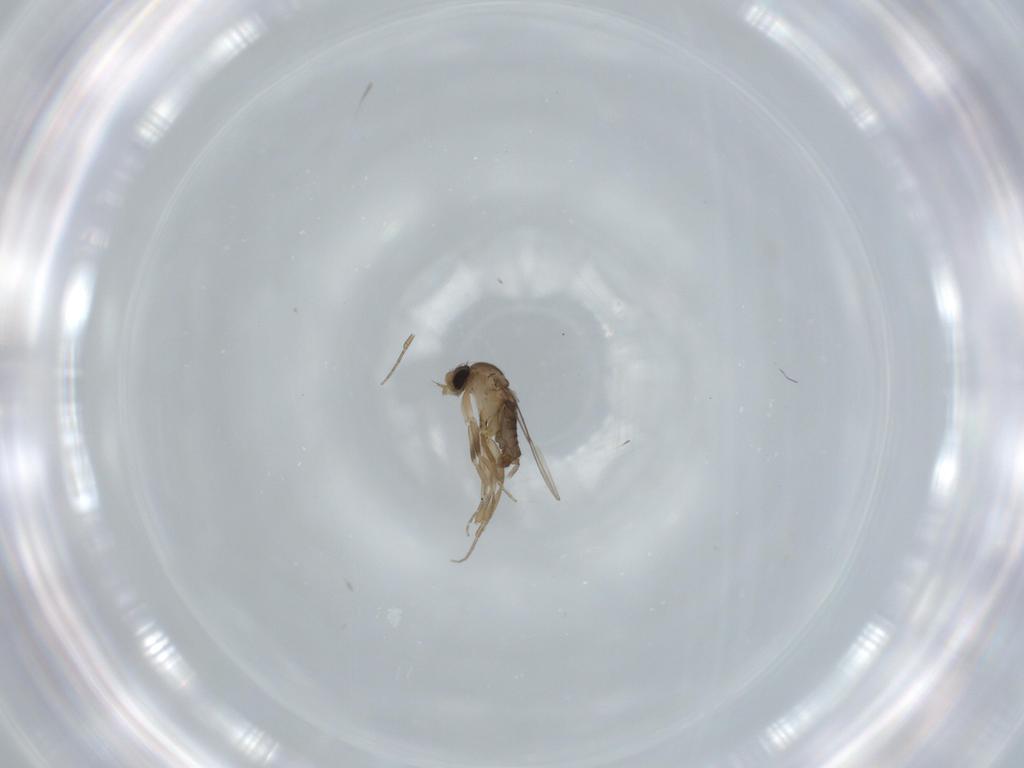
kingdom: Animalia
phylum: Arthropoda
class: Insecta
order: Diptera
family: Phoridae
